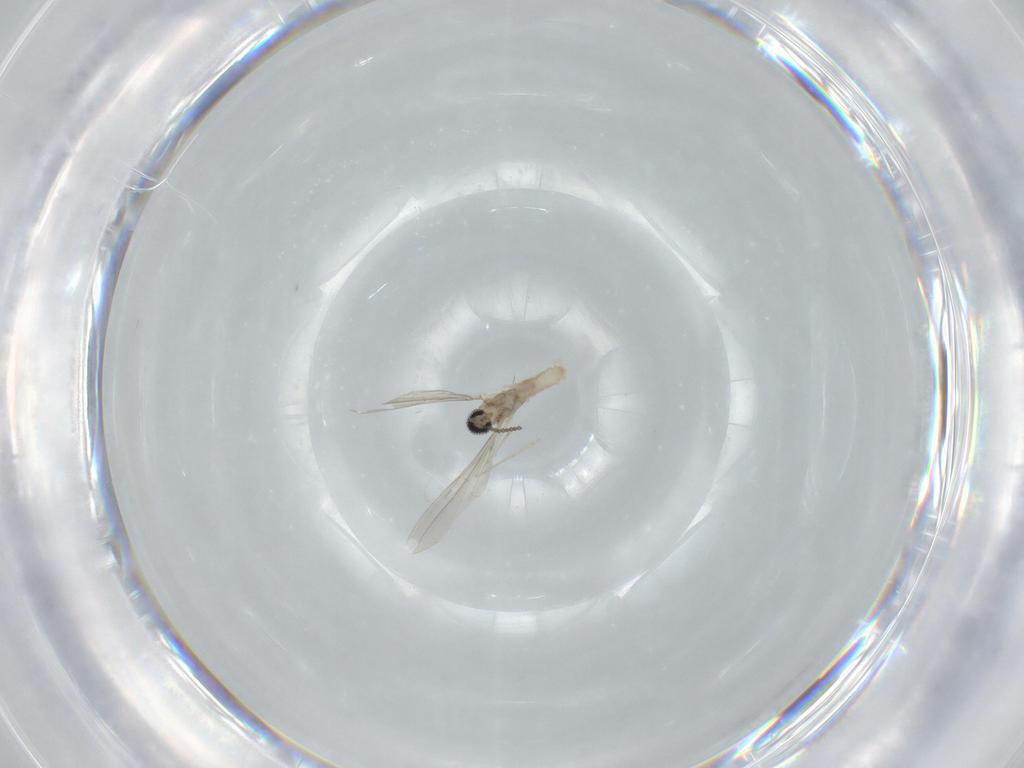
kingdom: Animalia
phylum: Arthropoda
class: Insecta
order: Diptera
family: Cecidomyiidae
